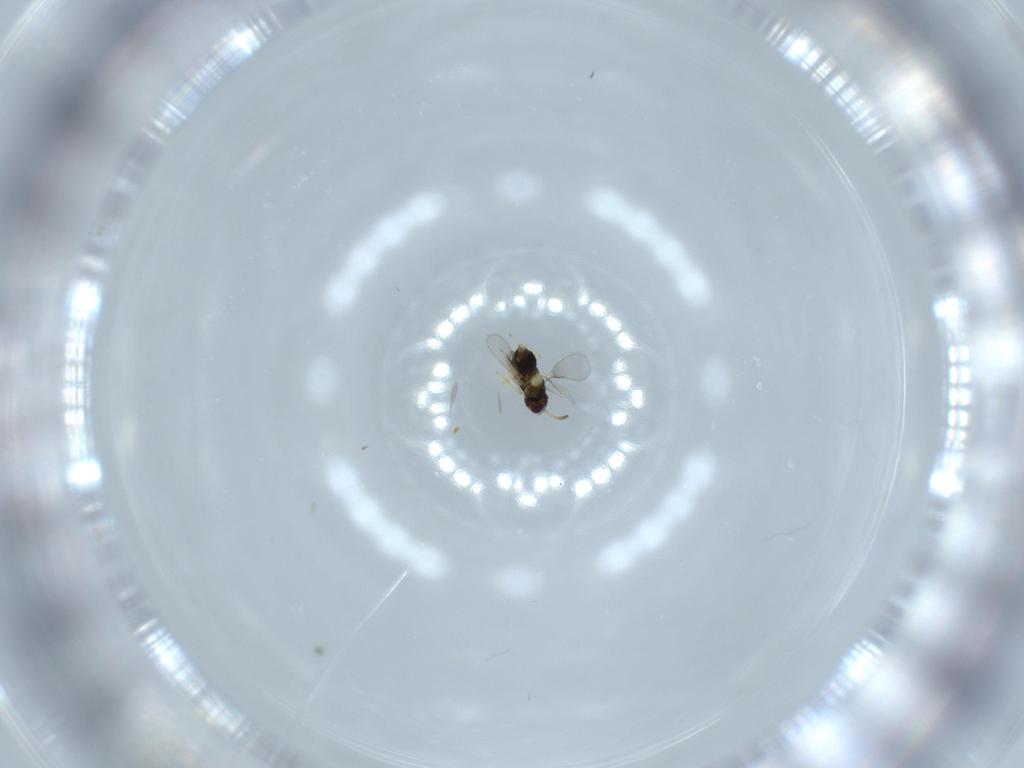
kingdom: Animalia
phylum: Arthropoda
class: Insecta
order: Hymenoptera
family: Aphelinidae
